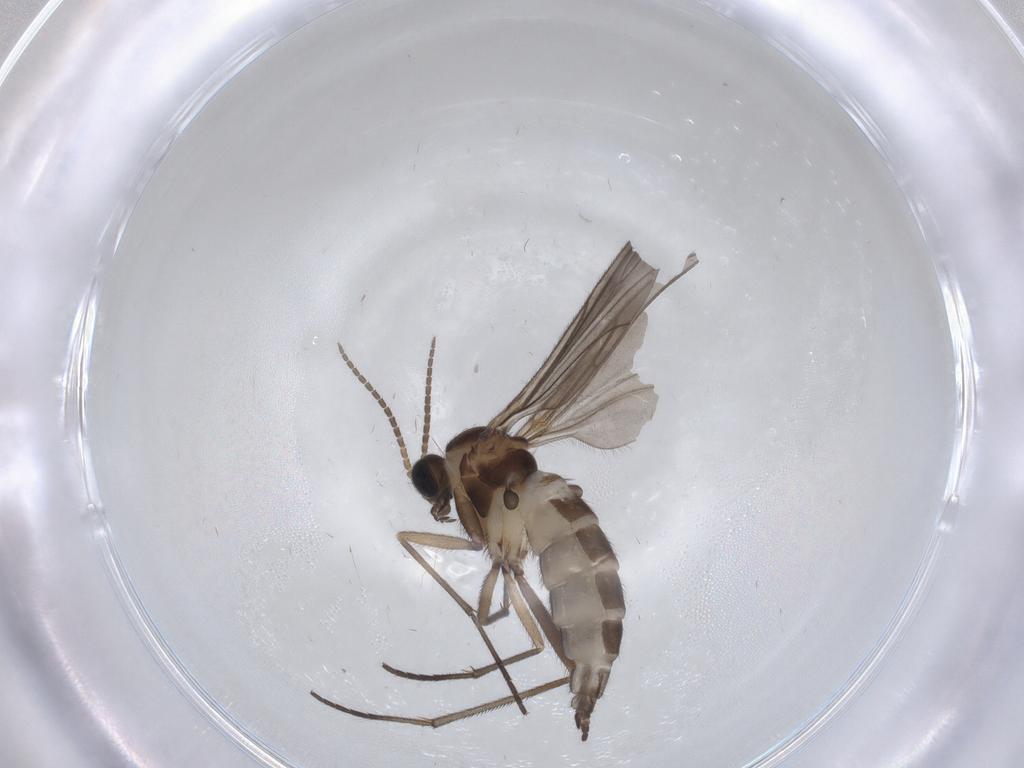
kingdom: Animalia
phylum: Arthropoda
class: Insecta
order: Diptera
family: Sciaridae
